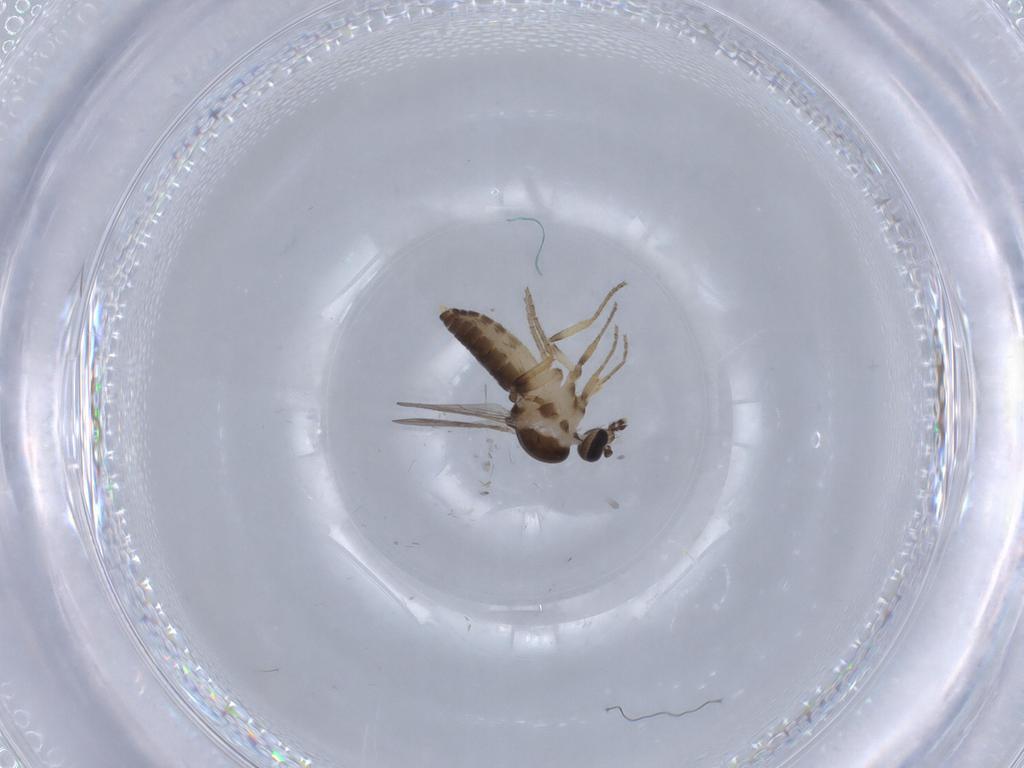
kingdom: Animalia
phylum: Arthropoda
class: Insecta
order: Diptera
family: Ceratopogonidae
